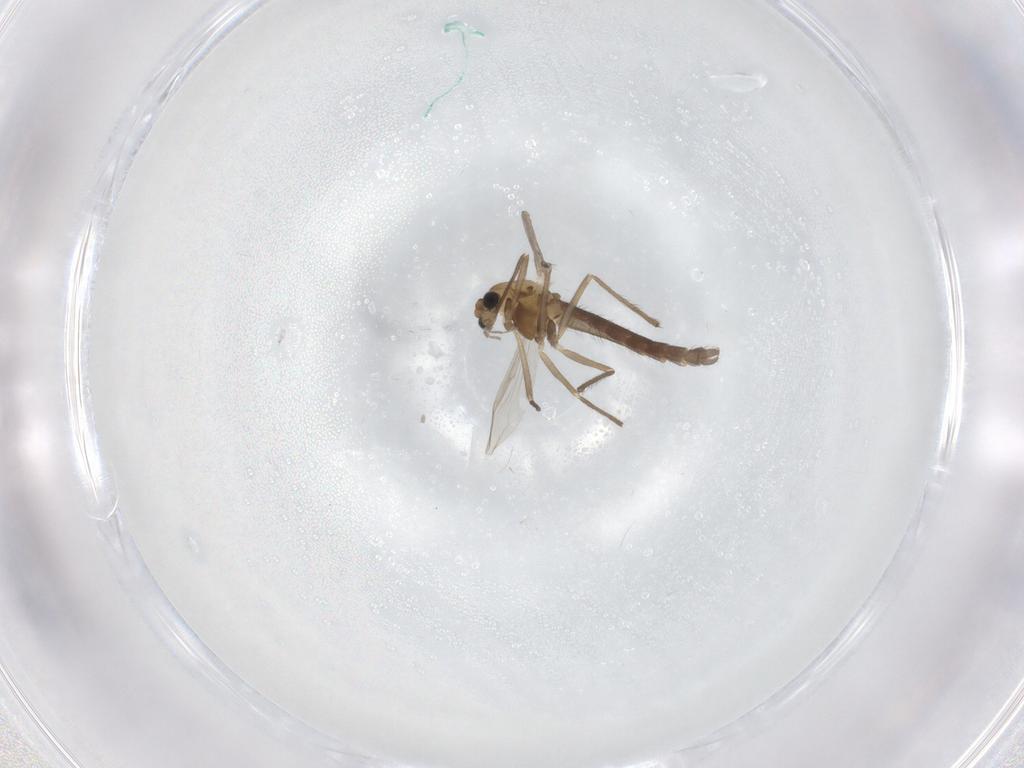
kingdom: Animalia
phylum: Arthropoda
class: Insecta
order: Diptera
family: Chironomidae
